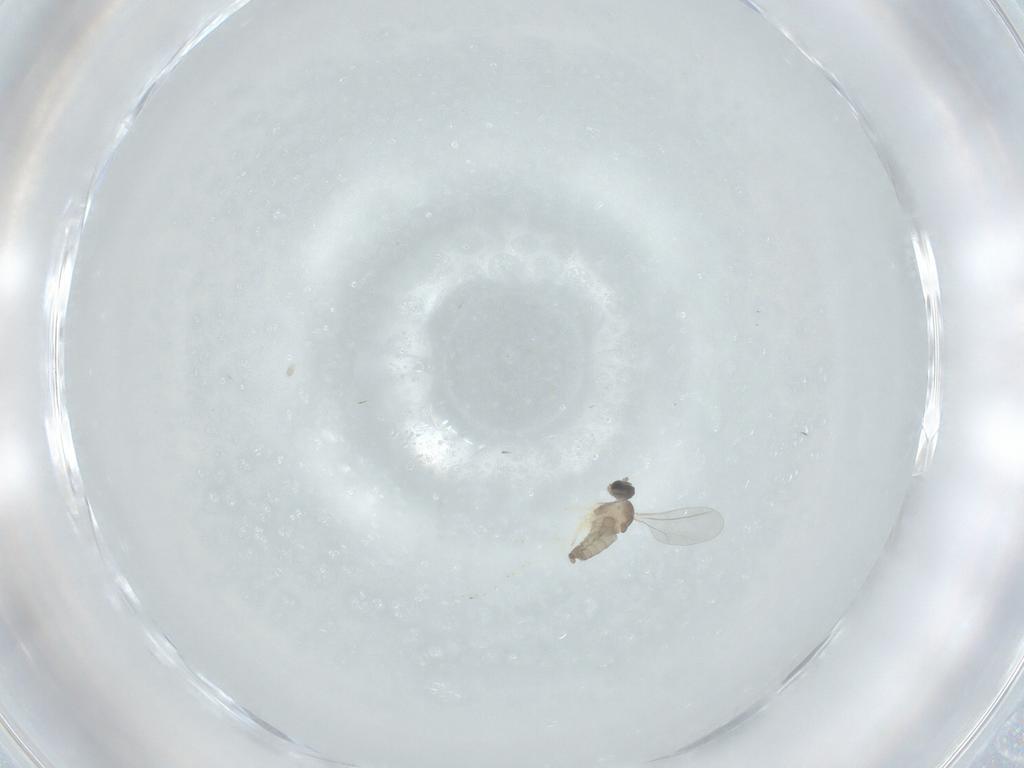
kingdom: Animalia
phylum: Arthropoda
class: Insecta
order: Diptera
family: Cecidomyiidae
